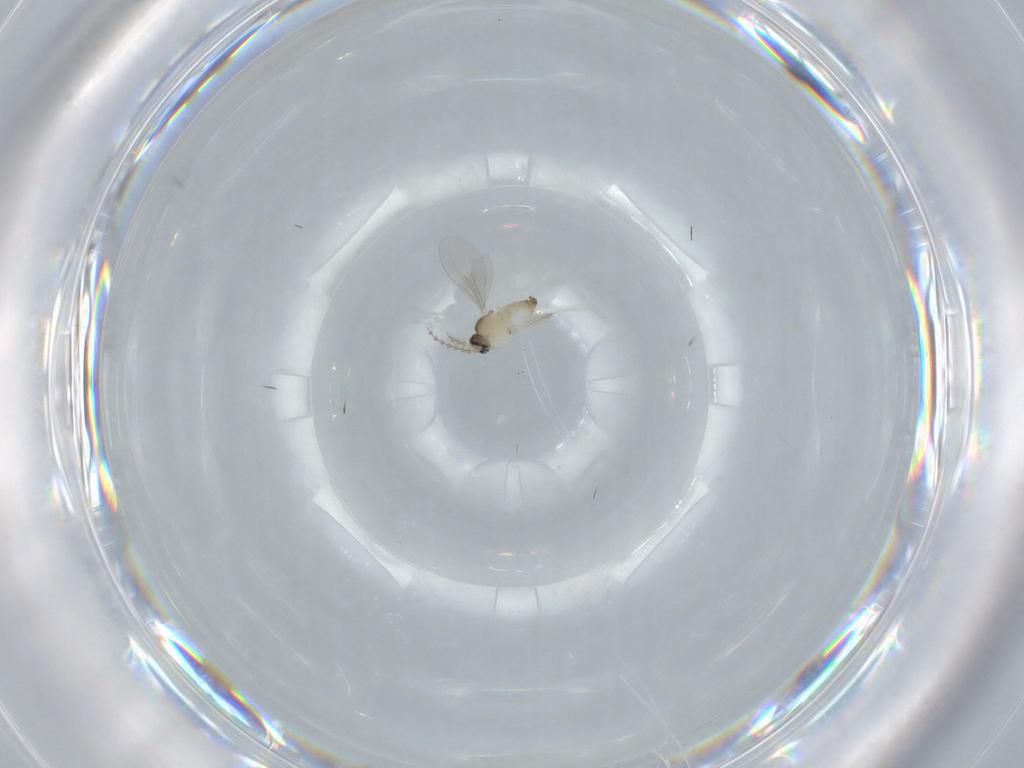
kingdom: Animalia
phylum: Arthropoda
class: Insecta
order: Diptera
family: Cecidomyiidae
